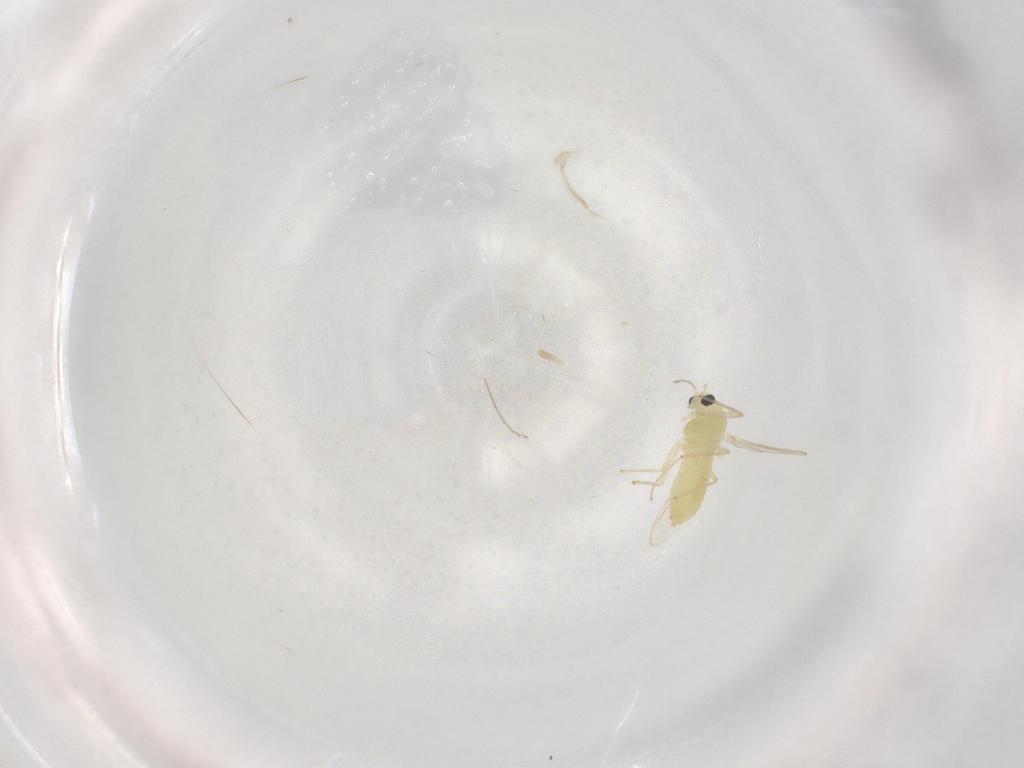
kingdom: Animalia
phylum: Arthropoda
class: Insecta
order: Diptera
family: Chironomidae
